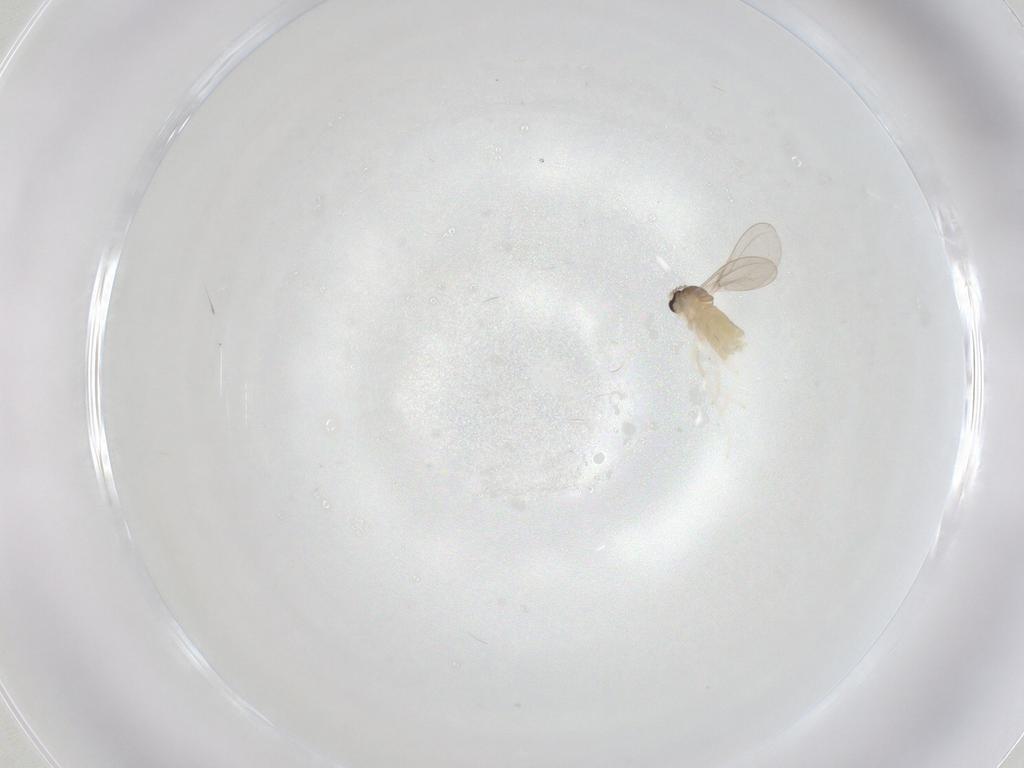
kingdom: Animalia
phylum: Arthropoda
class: Insecta
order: Diptera
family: Cecidomyiidae
